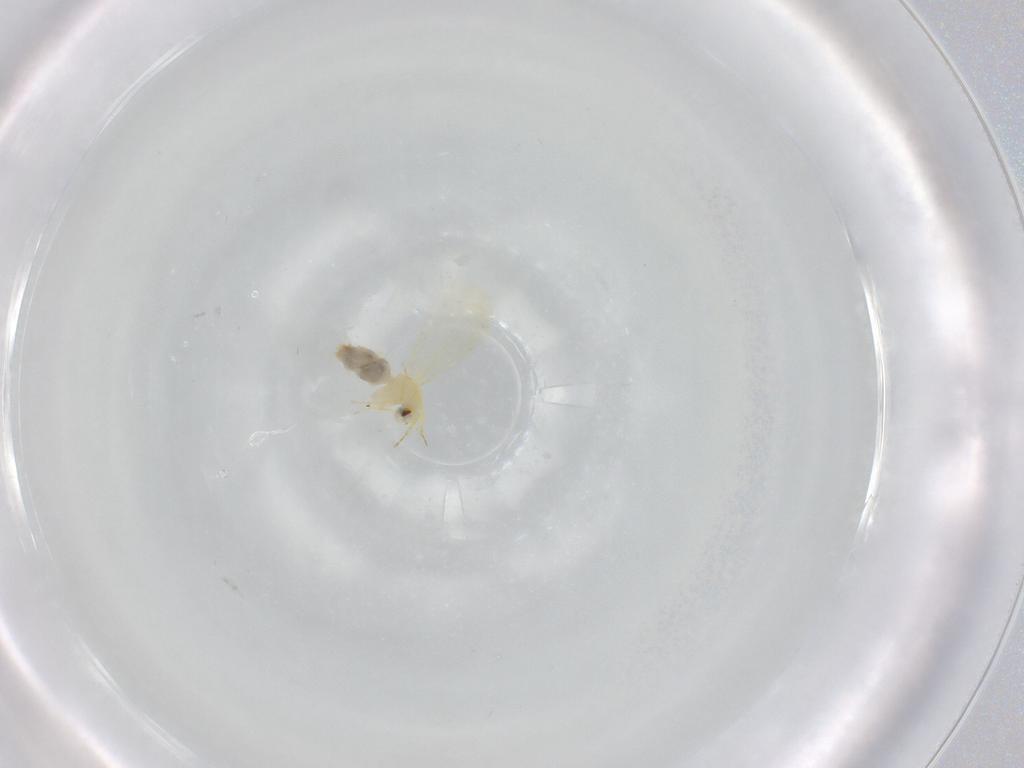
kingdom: Animalia
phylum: Arthropoda
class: Insecta
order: Hemiptera
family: Aleyrodidae
